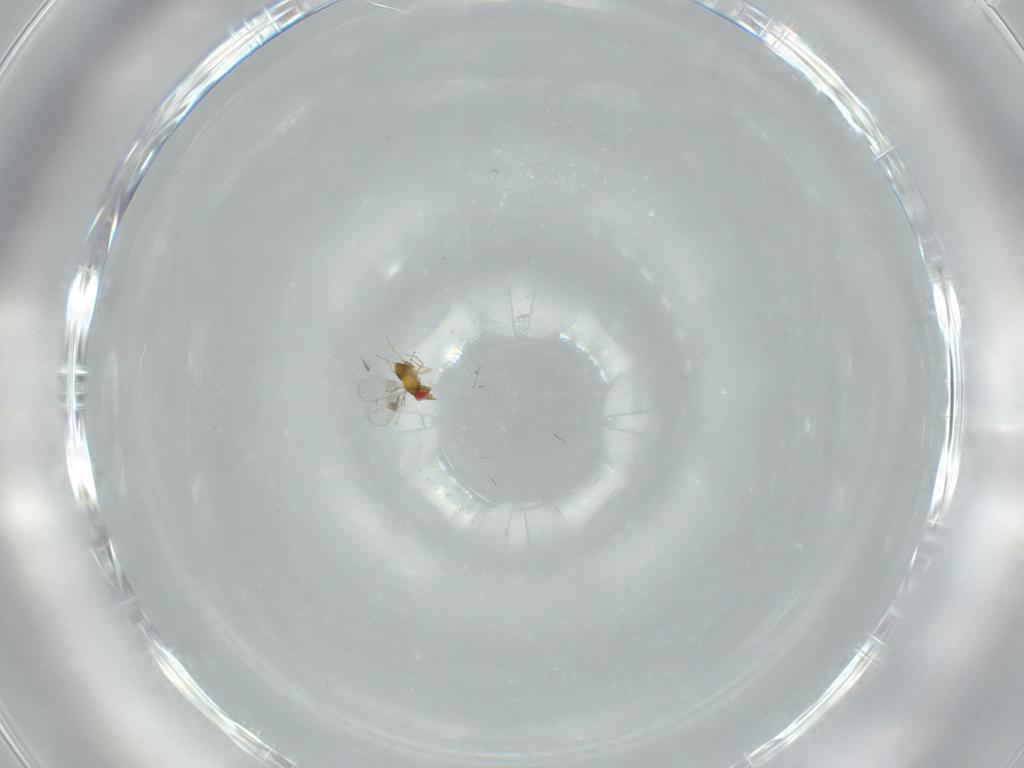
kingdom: Animalia
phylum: Arthropoda
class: Insecta
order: Hymenoptera
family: Trichogrammatidae
